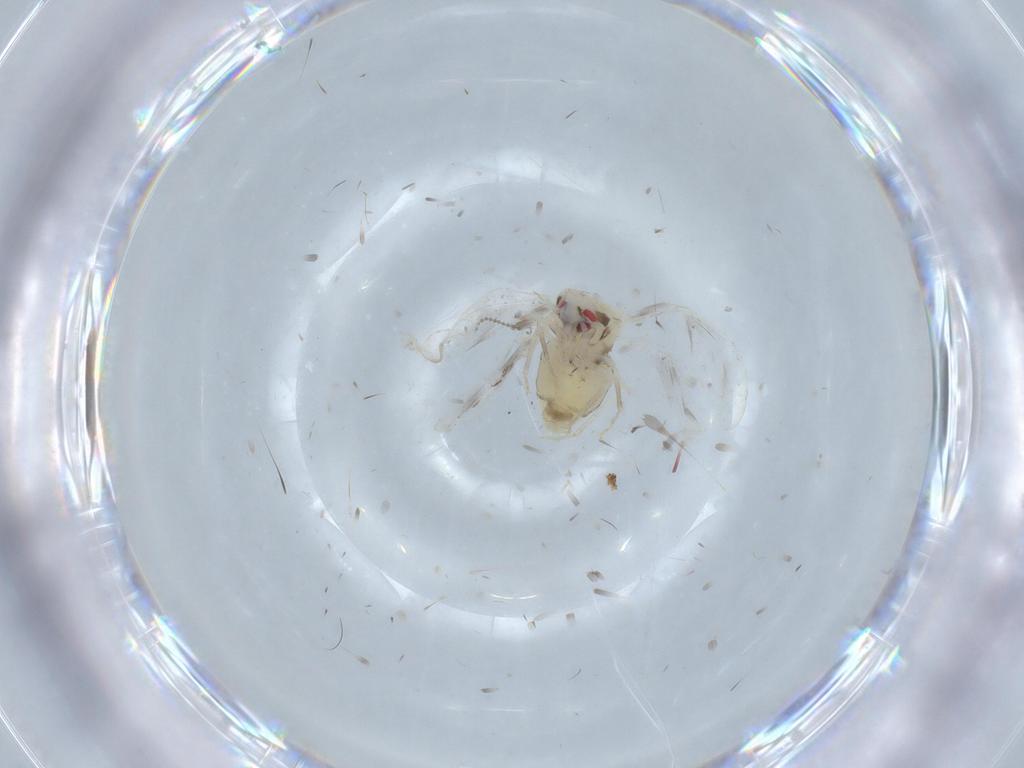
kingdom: Animalia
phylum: Arthropoda
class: Insecta
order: Hemiptera
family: Aleyrodidae
